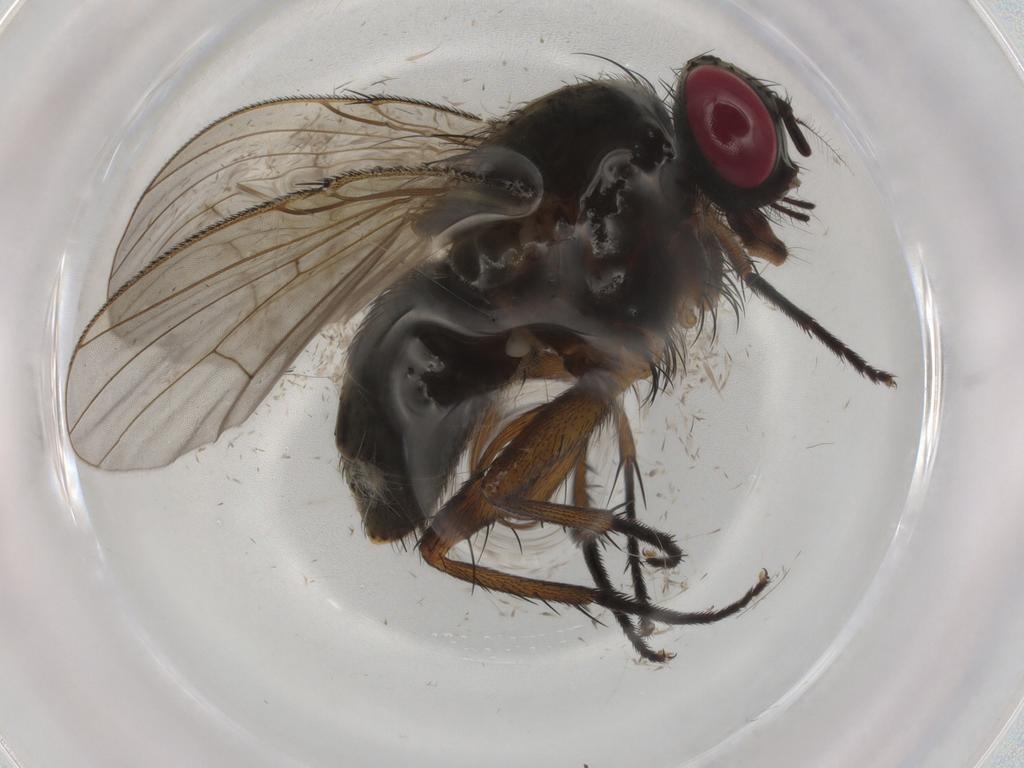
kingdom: Animalia
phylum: Arthropoda
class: Insecta
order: Diptera
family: Muscidae
